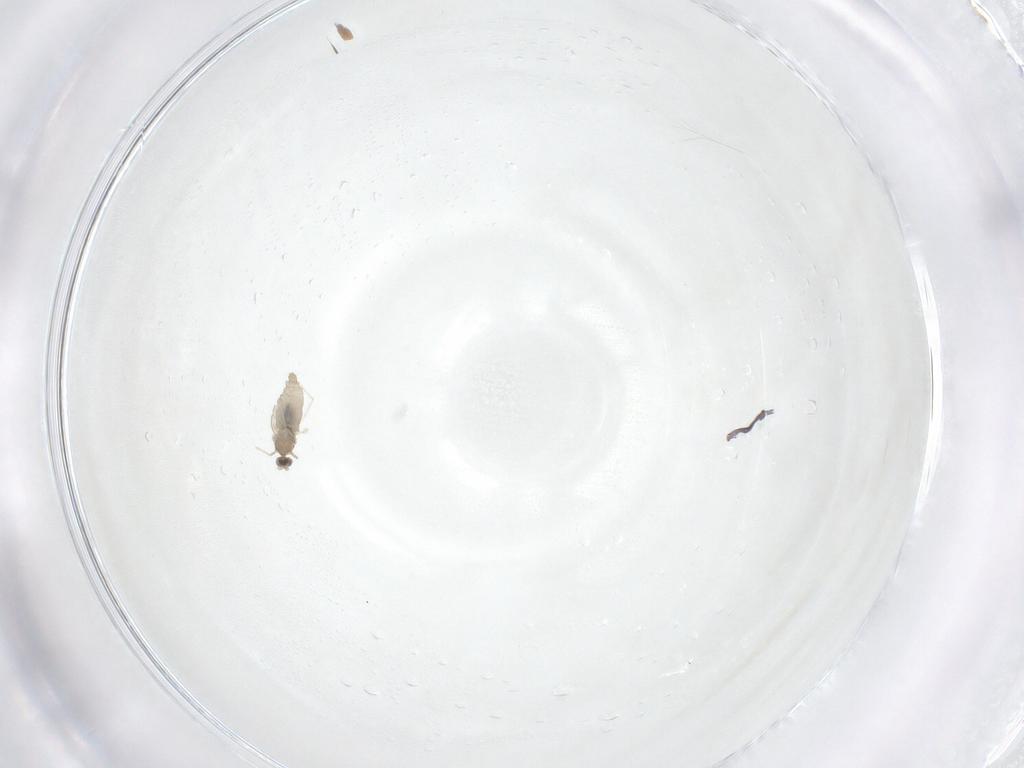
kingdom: Animalia
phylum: Arthropoda
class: Insecta
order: Diptera
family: Cecidomyiidae
